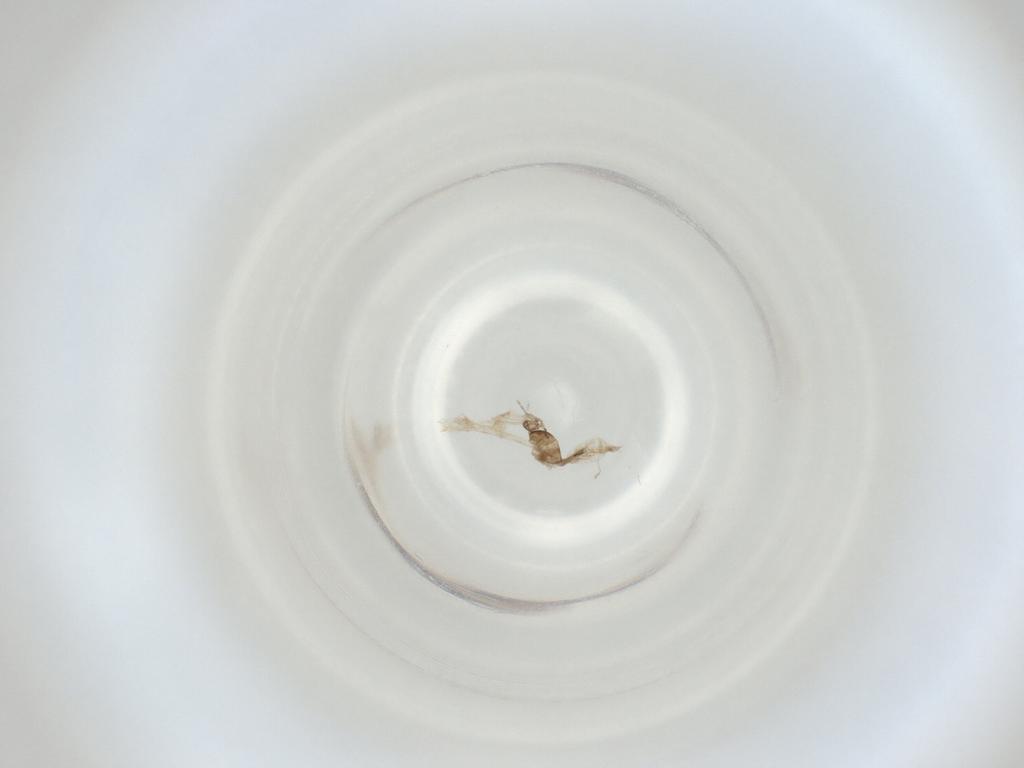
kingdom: Animalia
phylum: Arthropoda
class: Insecta
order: Diptera
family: Cecidomyiidae
